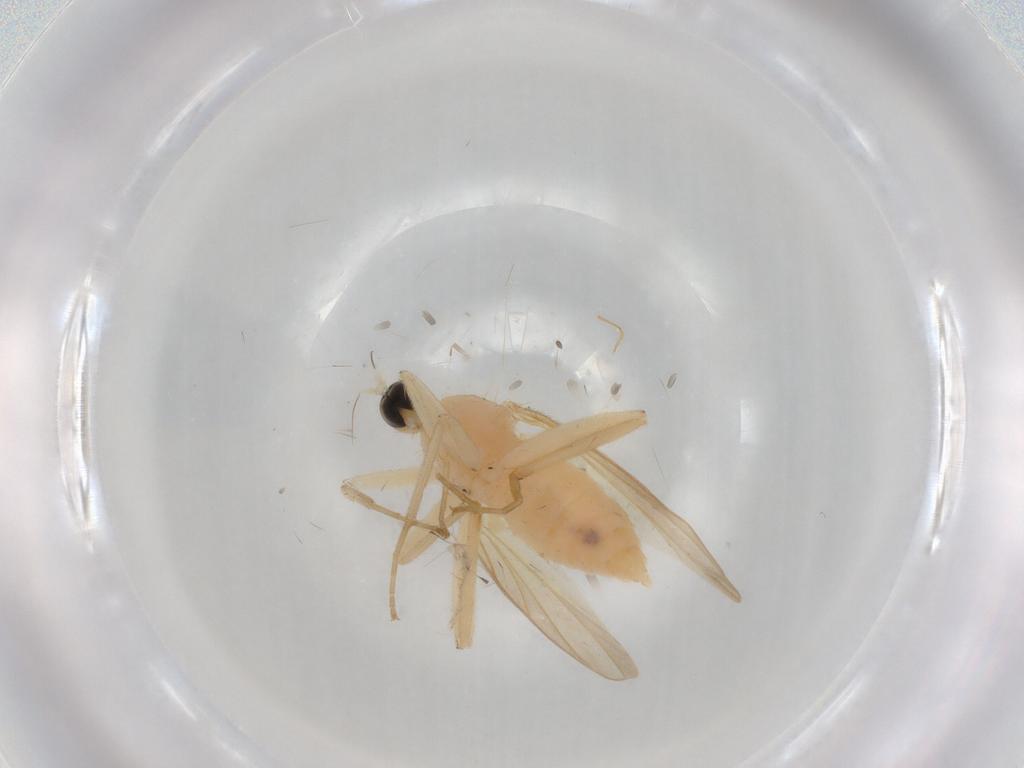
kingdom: Animalia
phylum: Arthropoda
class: Insecta
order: Diptera
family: Hybotidae
